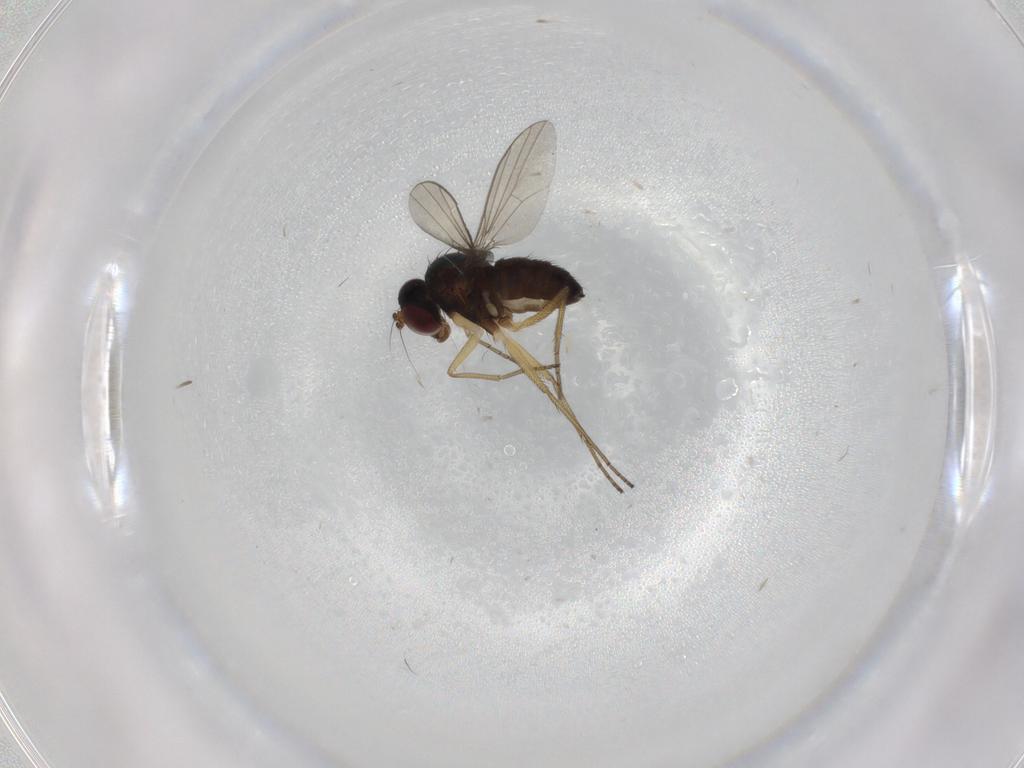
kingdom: Animalia
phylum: Arthropoda
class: Insecta
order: Diptera
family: Dolichopodidae
